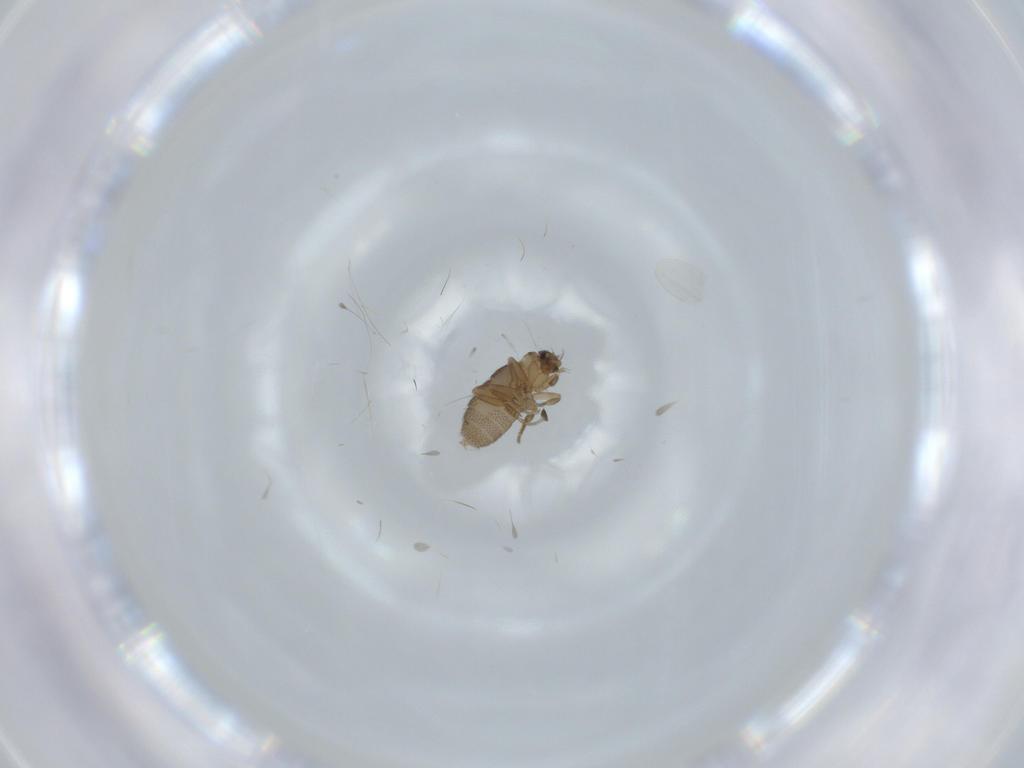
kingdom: Animalia
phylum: Arthropoda
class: Insecta
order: Diptera
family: Phoridae
